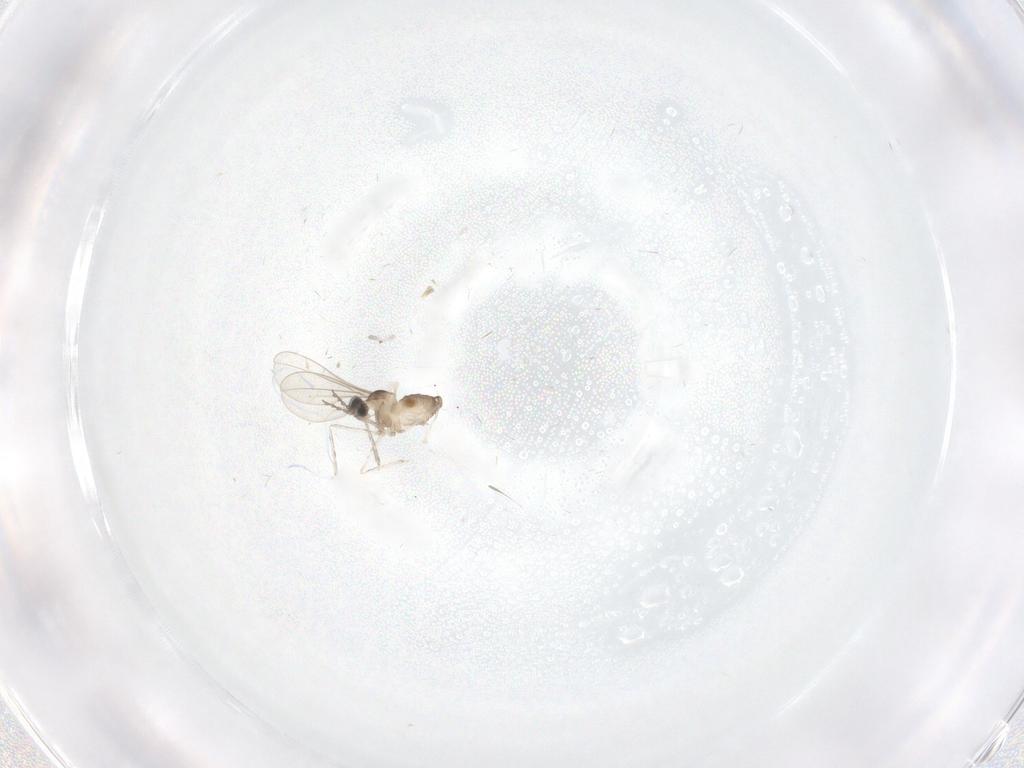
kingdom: Animalia
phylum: Arthropoda
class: Insecta
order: Diptera
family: Cecidomyiidae
